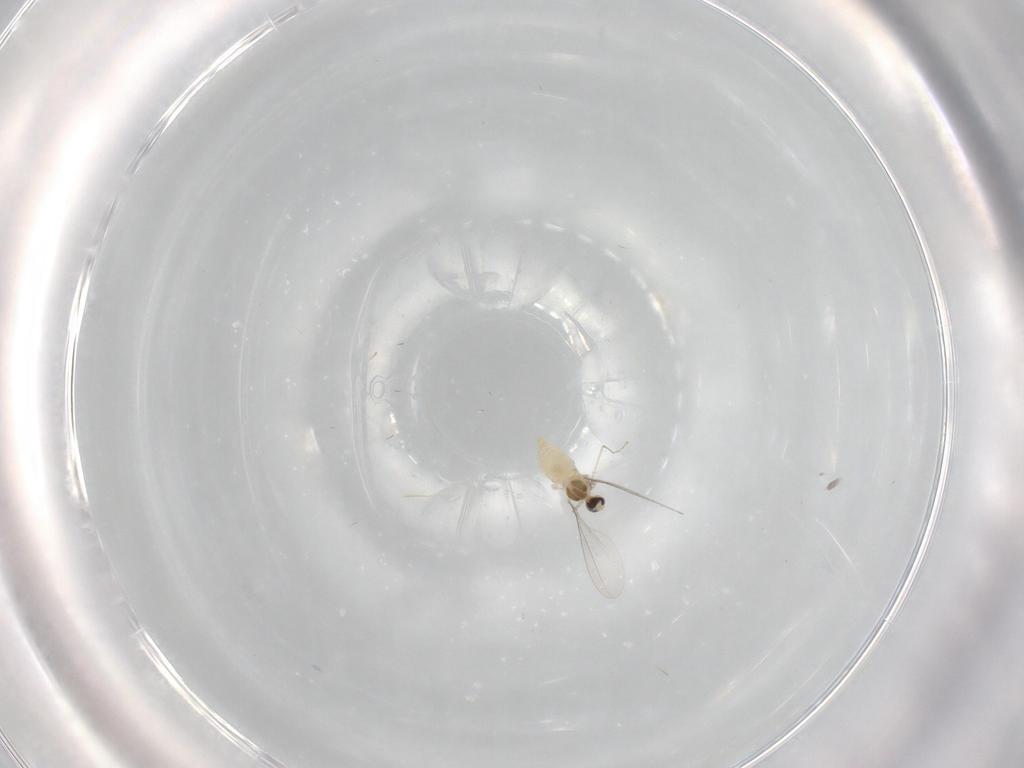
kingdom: Animalia
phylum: Arthropoda
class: Insecta
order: Diptera
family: Cecidomyiidae
